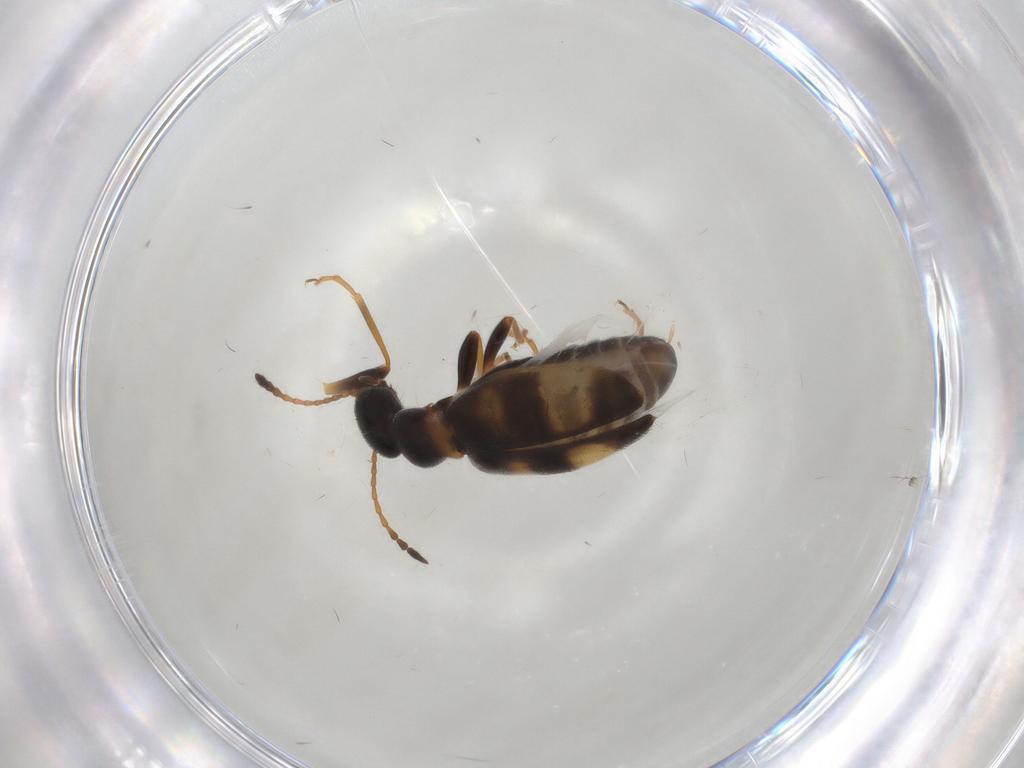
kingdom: Animalia
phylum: Arthropoda
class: Insecta
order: Coleoptera
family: Anthicidae
